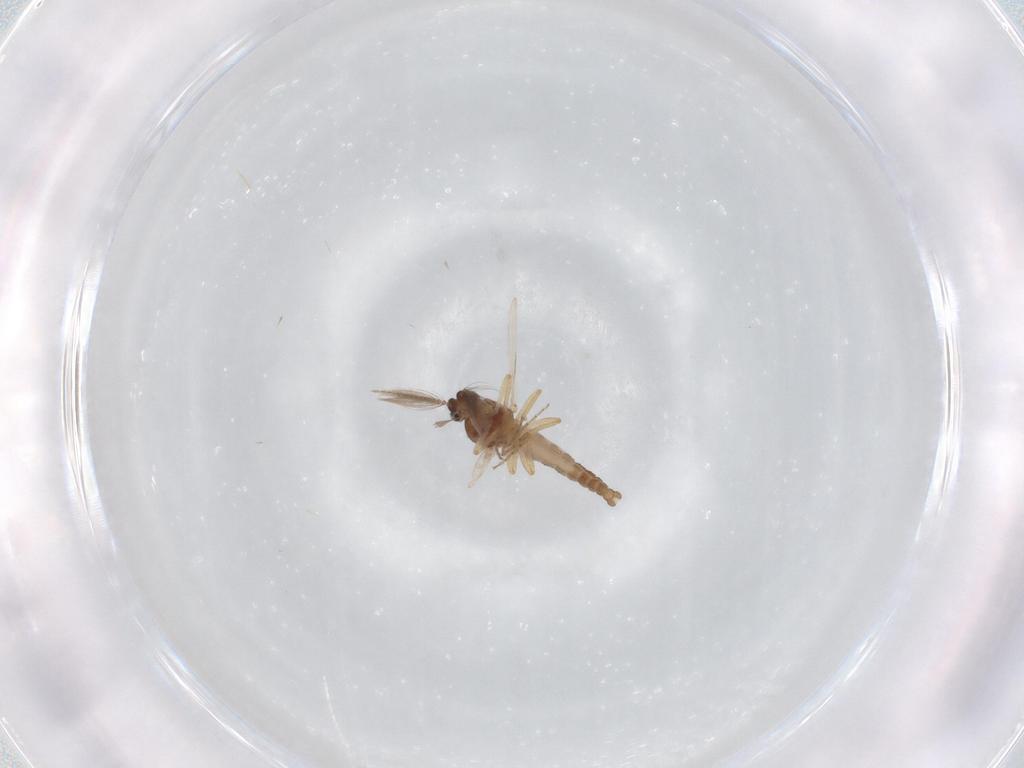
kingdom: Animalia
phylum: Arthropoda
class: Insecta
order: Diptera
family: Ceratopogonidae
